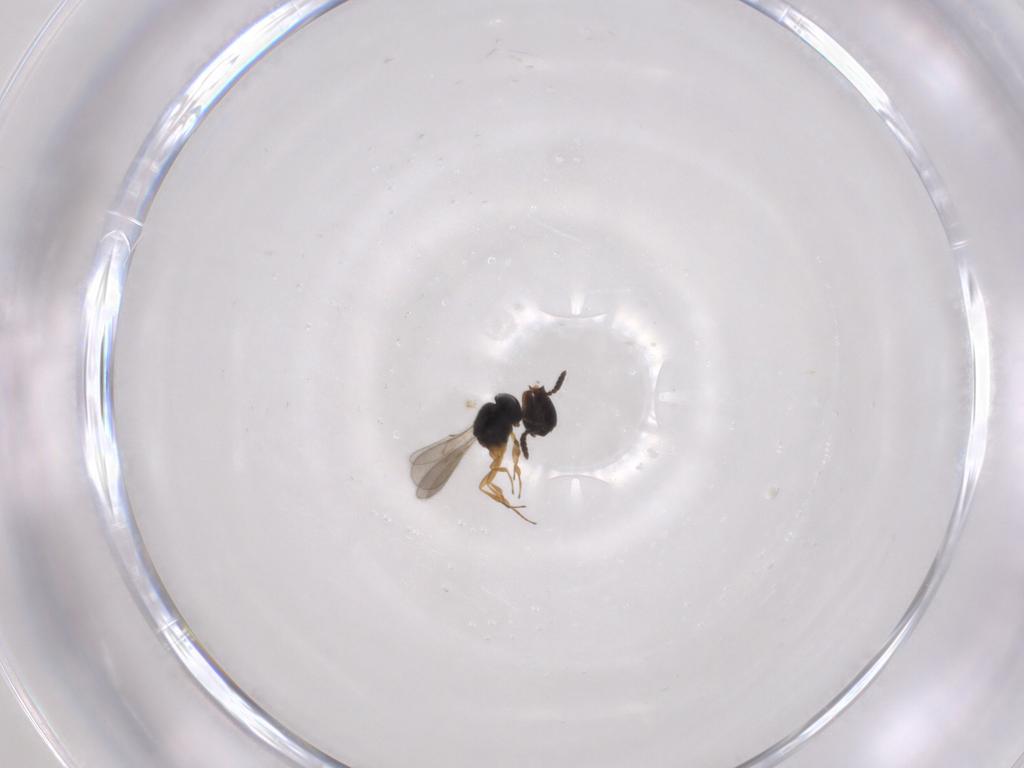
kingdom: Animalia
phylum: Arthropoda
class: Insecta
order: Hymenoptera
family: Scelionidae
